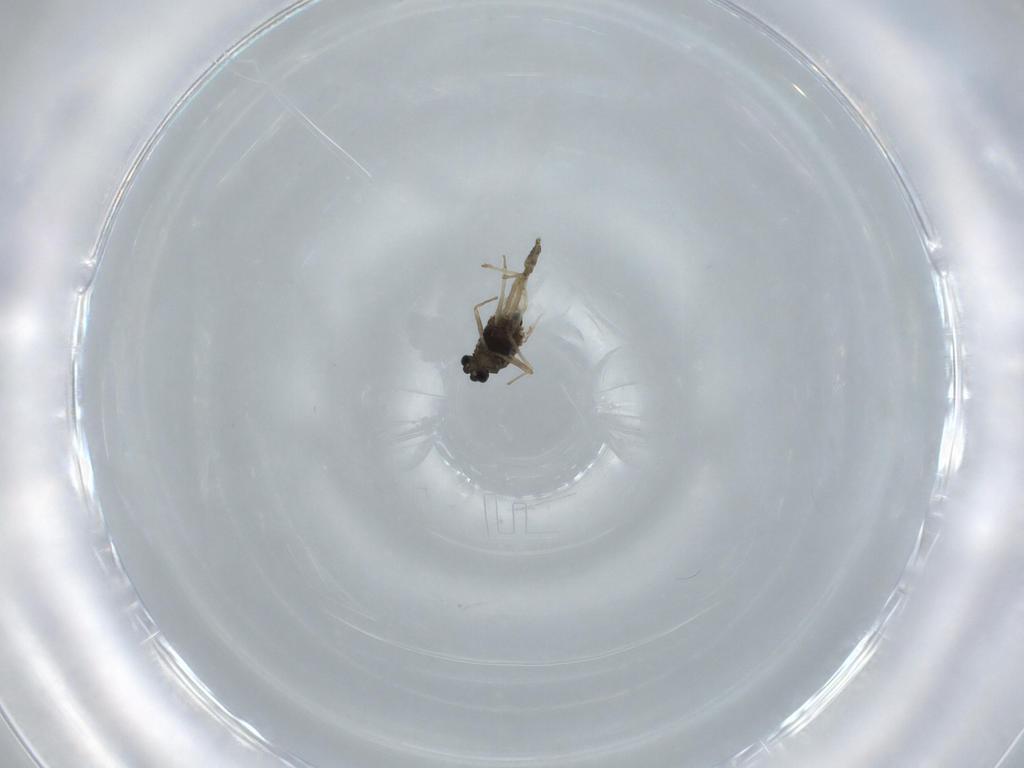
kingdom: Animalia
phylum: Arthropoda
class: Insecta
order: Diptera
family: Chironomidae
